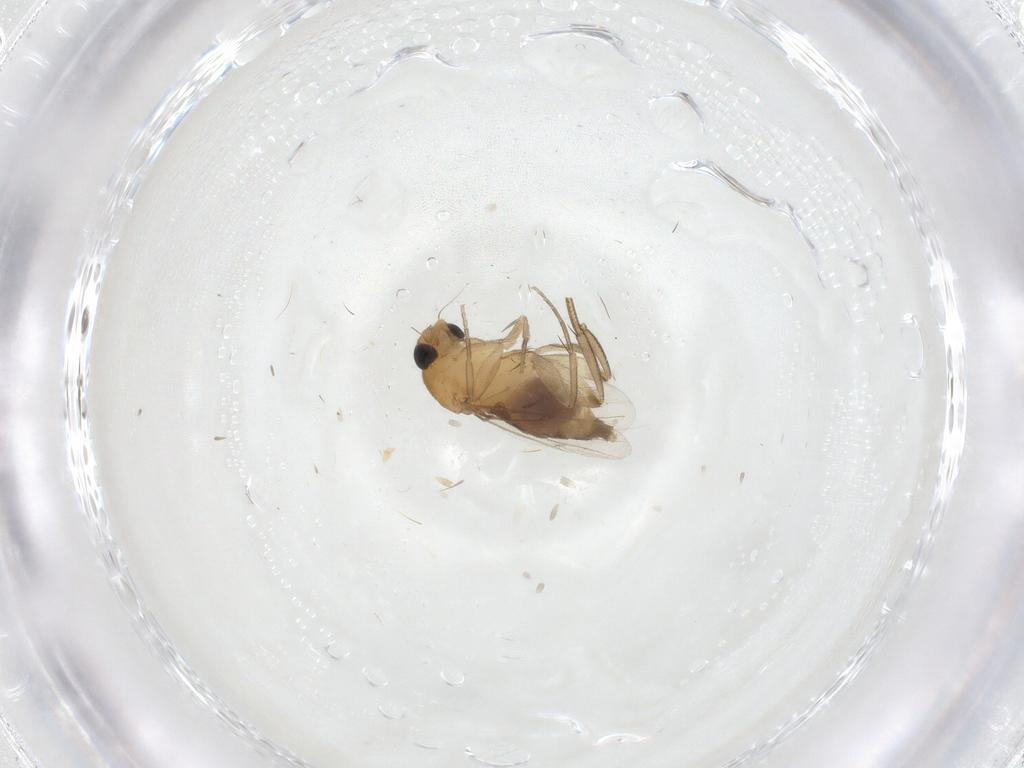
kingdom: Animalia
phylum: Arthropoda
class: Insecta
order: Diptera
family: Phoridae
